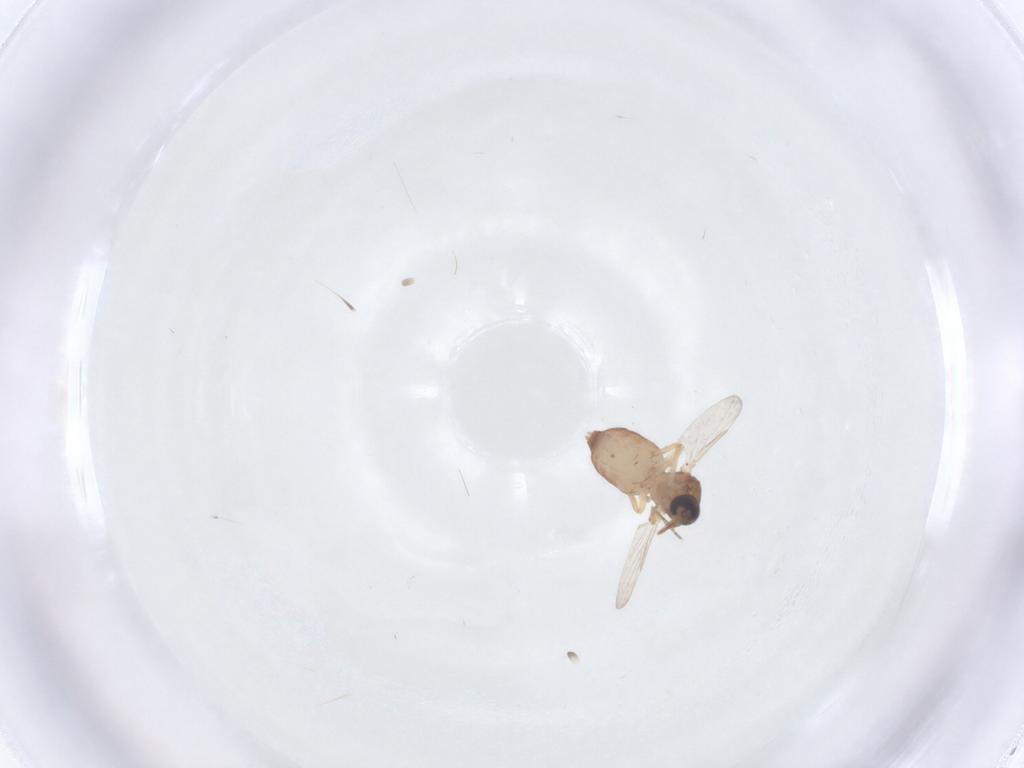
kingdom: Animalia
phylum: Arthropoda
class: Insecta
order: Diptera
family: Ceratopogonidae
